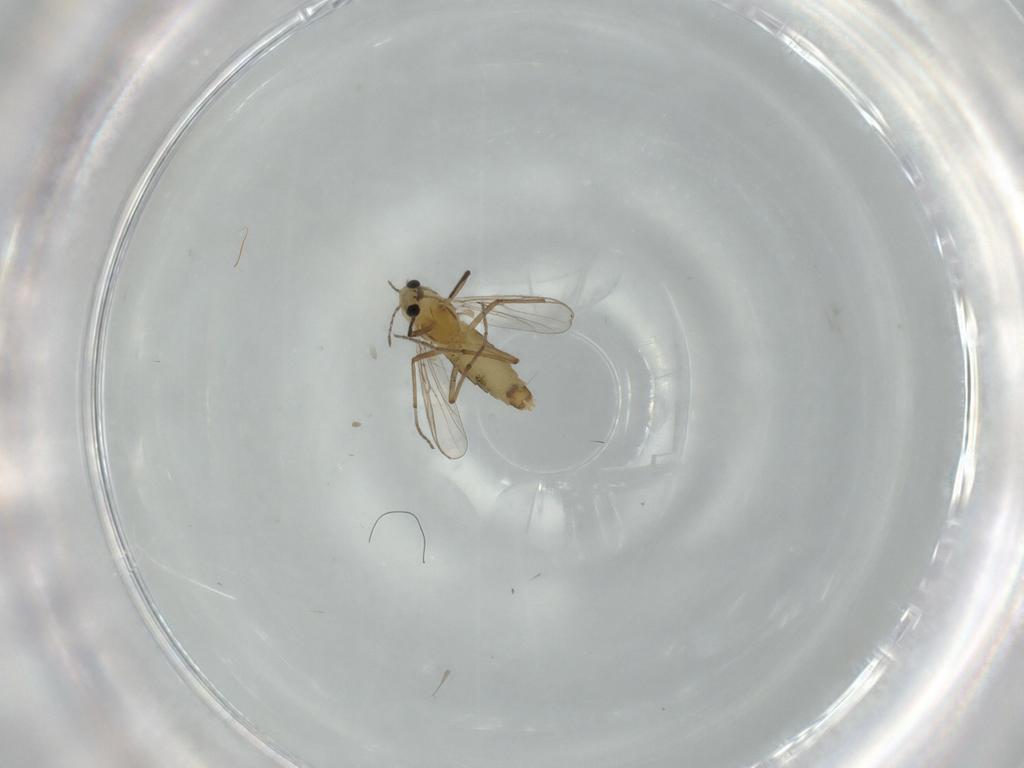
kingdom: Animalia
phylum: Arthropoda
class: Insecta
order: Diptera
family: Chironomidae
